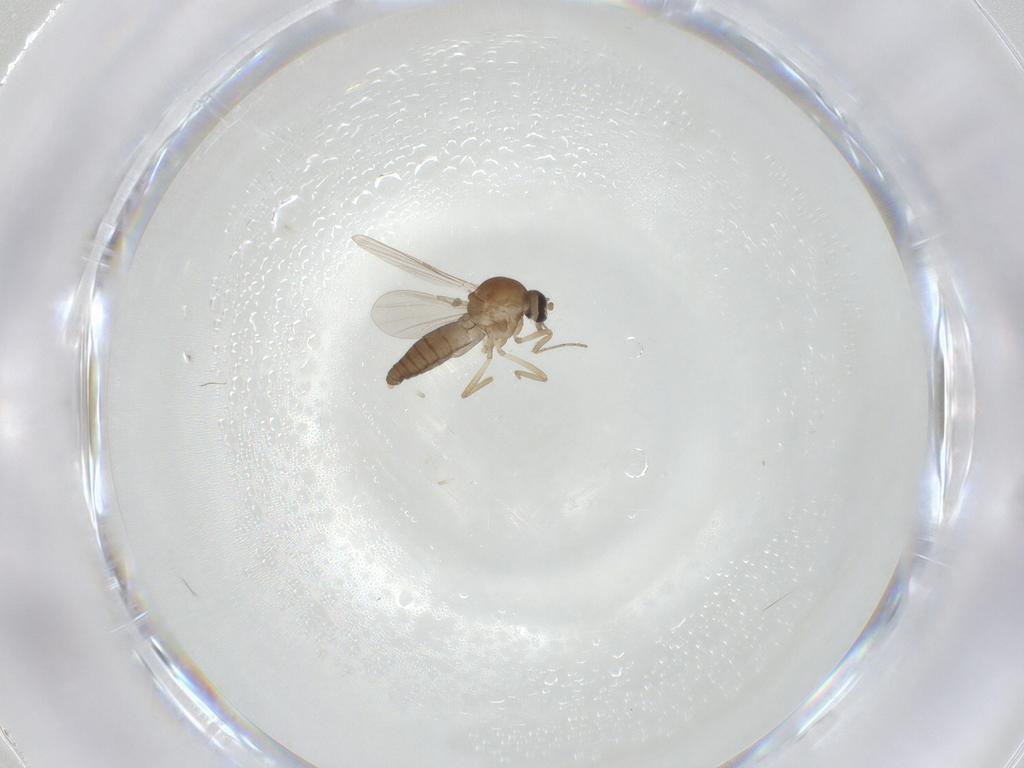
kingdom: Animalia
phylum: Arthropoda
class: Insecta
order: Diptera
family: Ceratopogonidae
